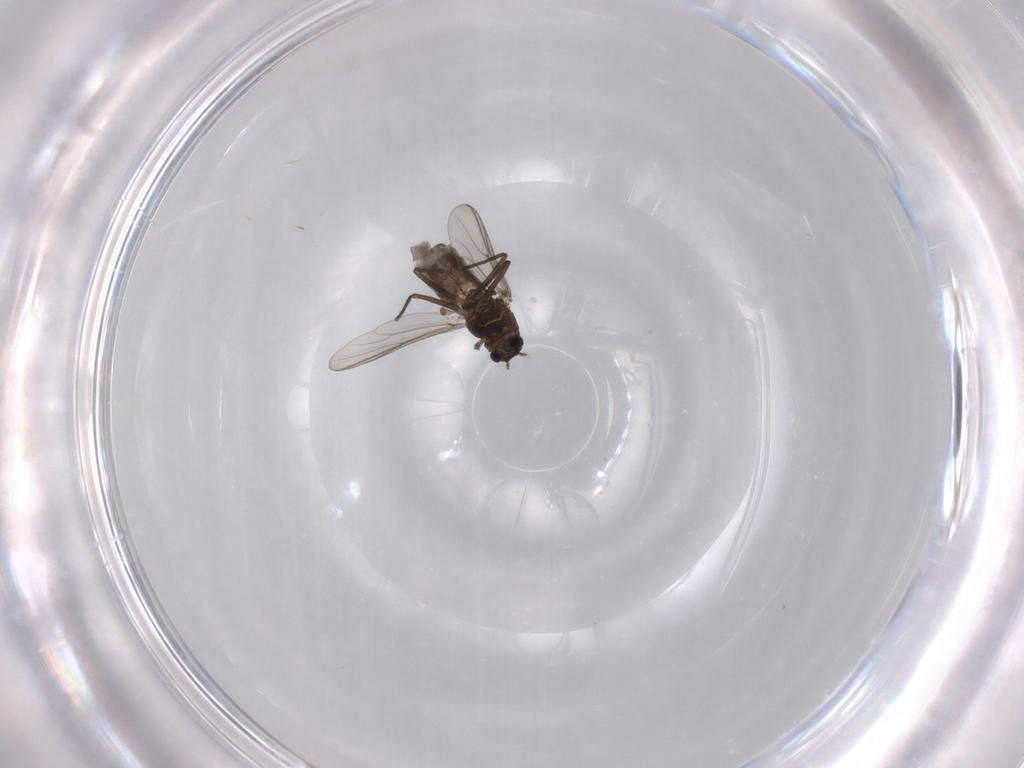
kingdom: Animalia
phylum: Arthropoda
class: Insecta
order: Diptera
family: Chironomidae
